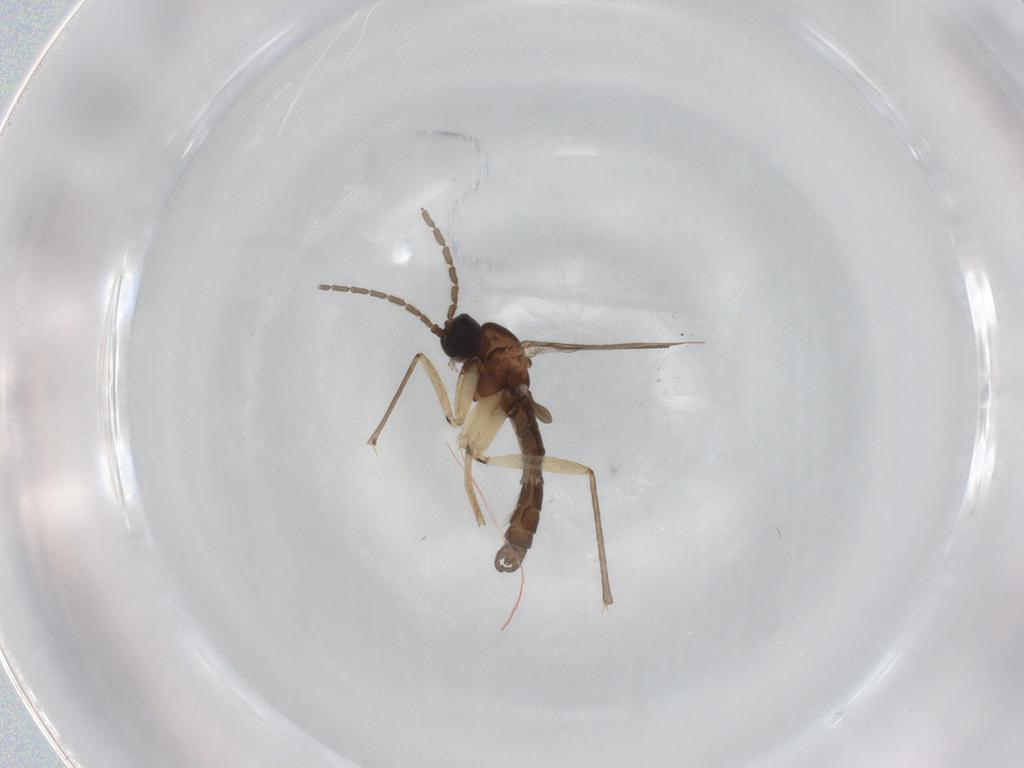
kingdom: Animalia
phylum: Arthropoda
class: Insecta
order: Diptera
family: Sciaridae
